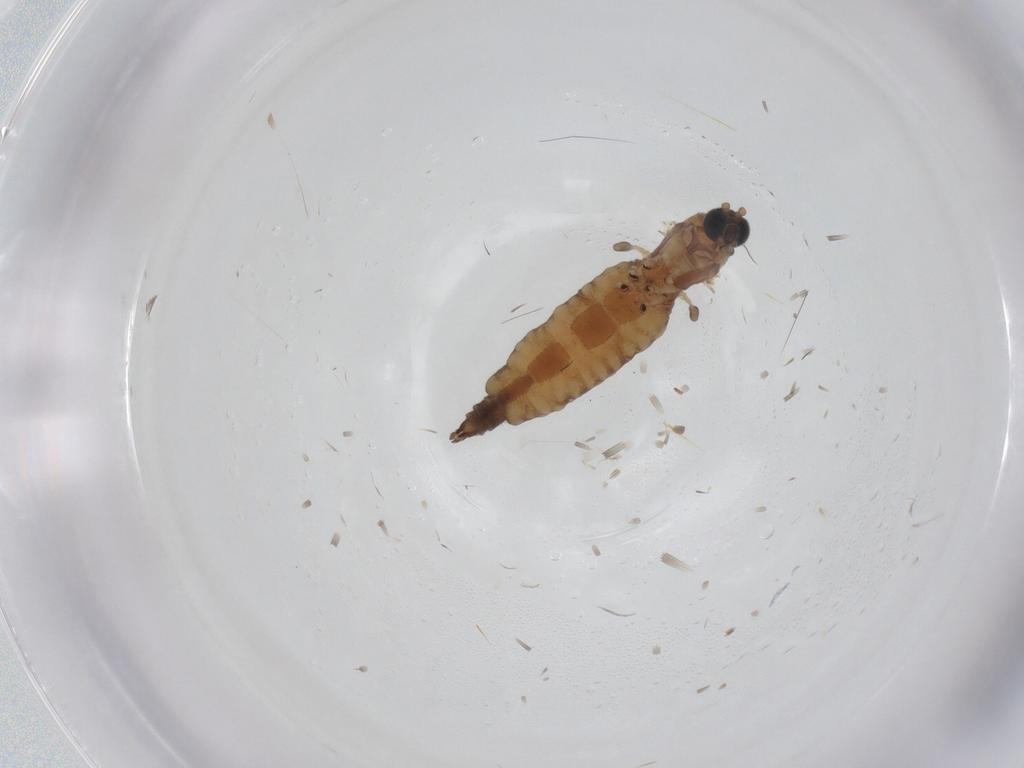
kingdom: Animalia
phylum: Arthropoda
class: Insecta
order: Diptera
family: Sciaridae
